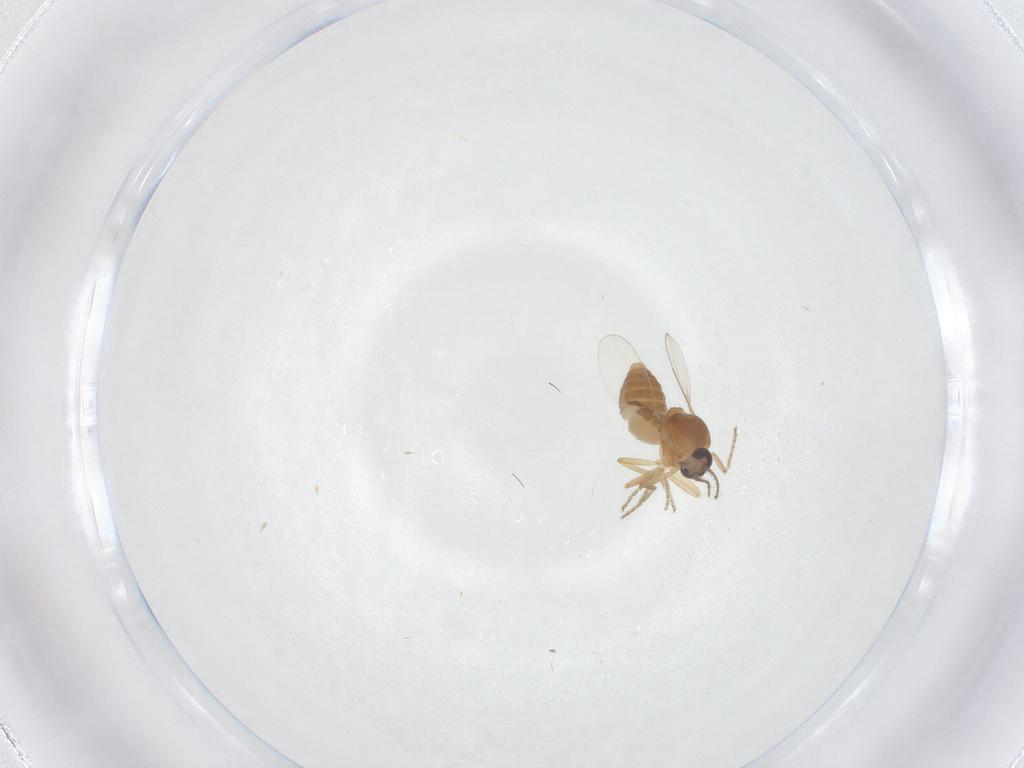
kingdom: Animalia
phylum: Arthropoda
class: Insecta
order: Diptera
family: Ceratopogonidae
